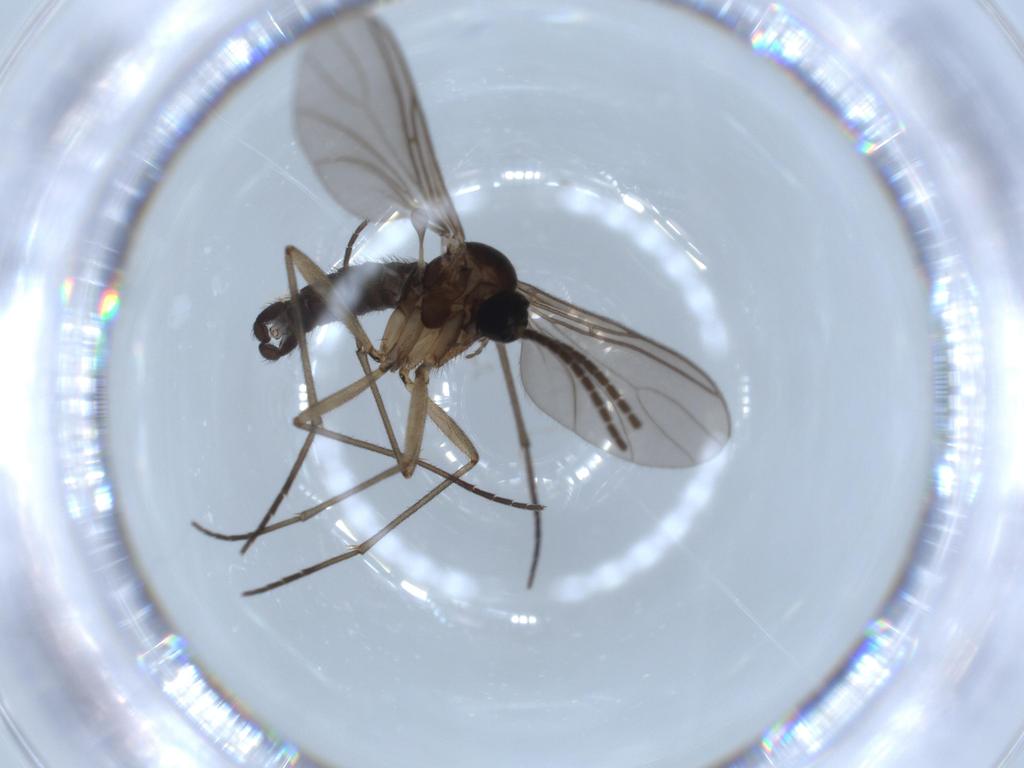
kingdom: Animalia
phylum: Arthropoda
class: Insecta
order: Diptera
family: Sciaridae
